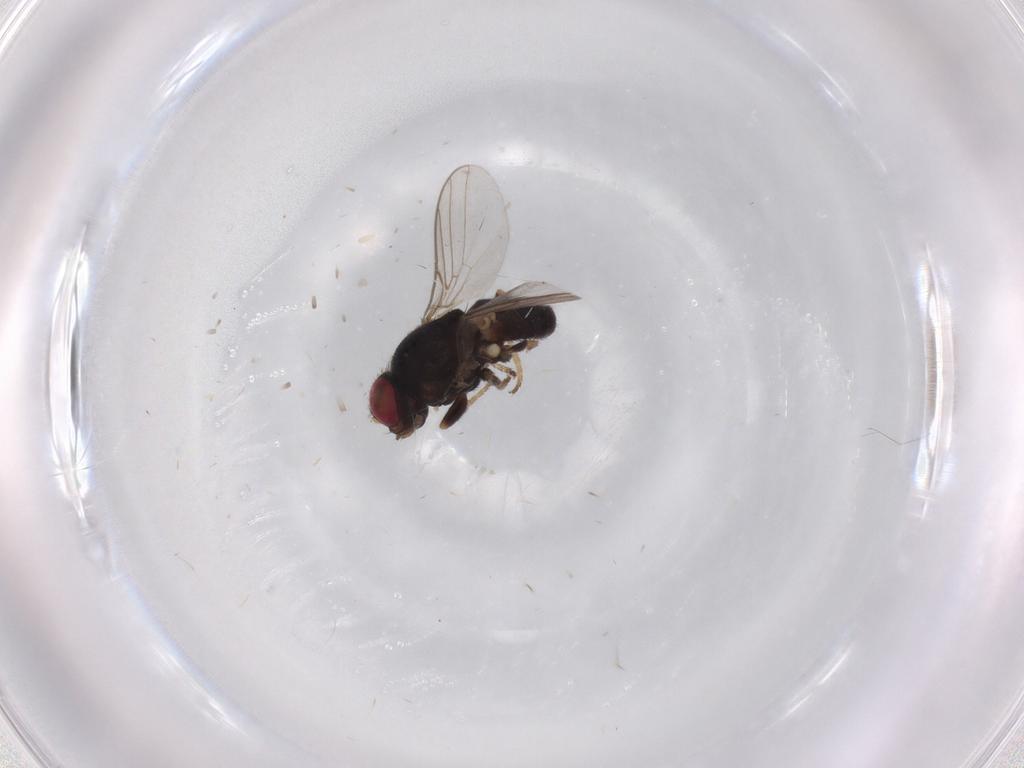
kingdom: Animalia
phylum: Arthropoda
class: Insecta
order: Diptera
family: Chloropidae
